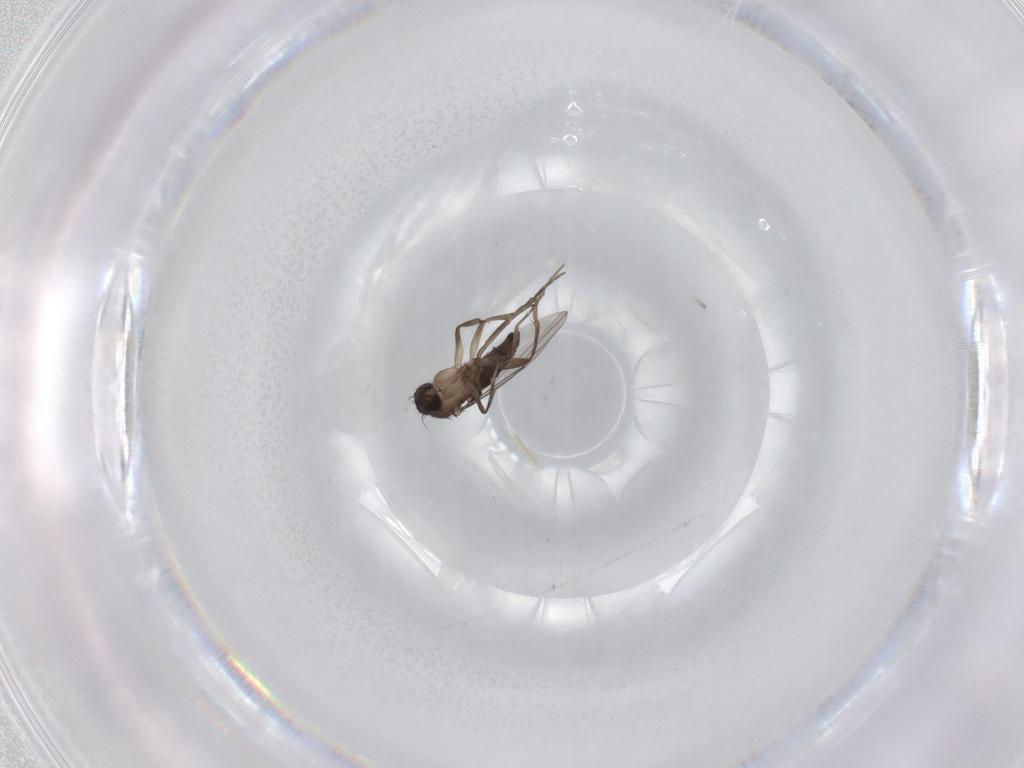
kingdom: Animalia
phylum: Arthropoda
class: Insecta
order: Diptera
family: Phoridae
